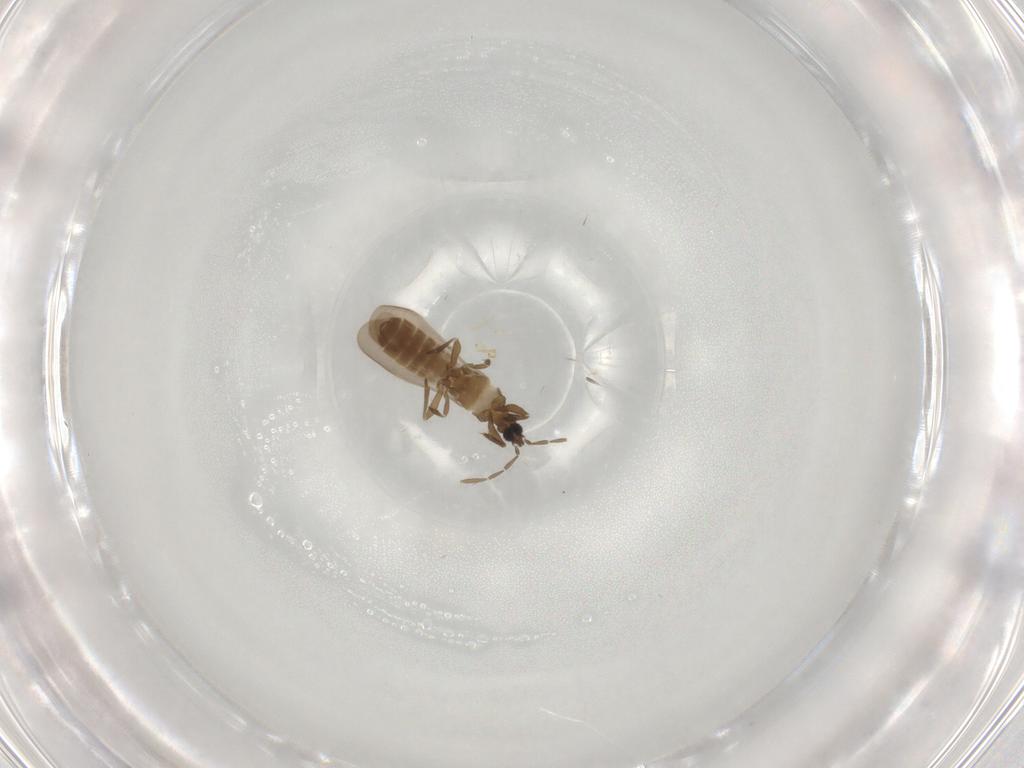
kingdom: Animalia
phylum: Arthropoda
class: Insecta
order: Hemiptera
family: Enicocephalidae
